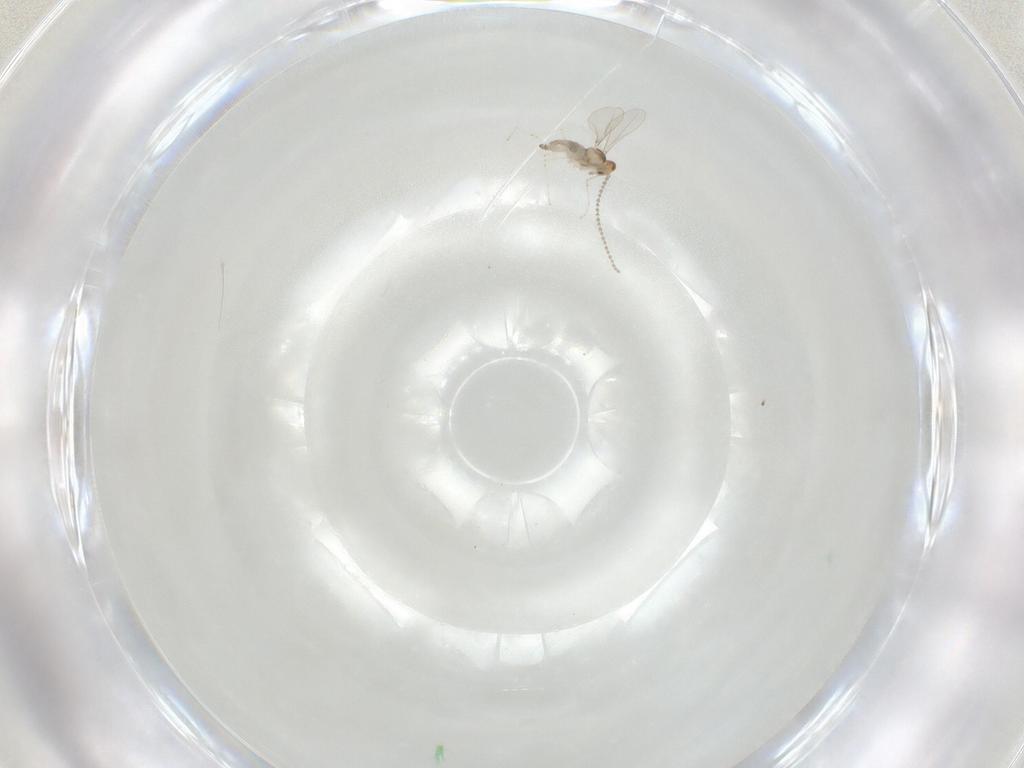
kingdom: Animalia
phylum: Arthropoda
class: Insecta
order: Diptera
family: Cecidomyiidae
